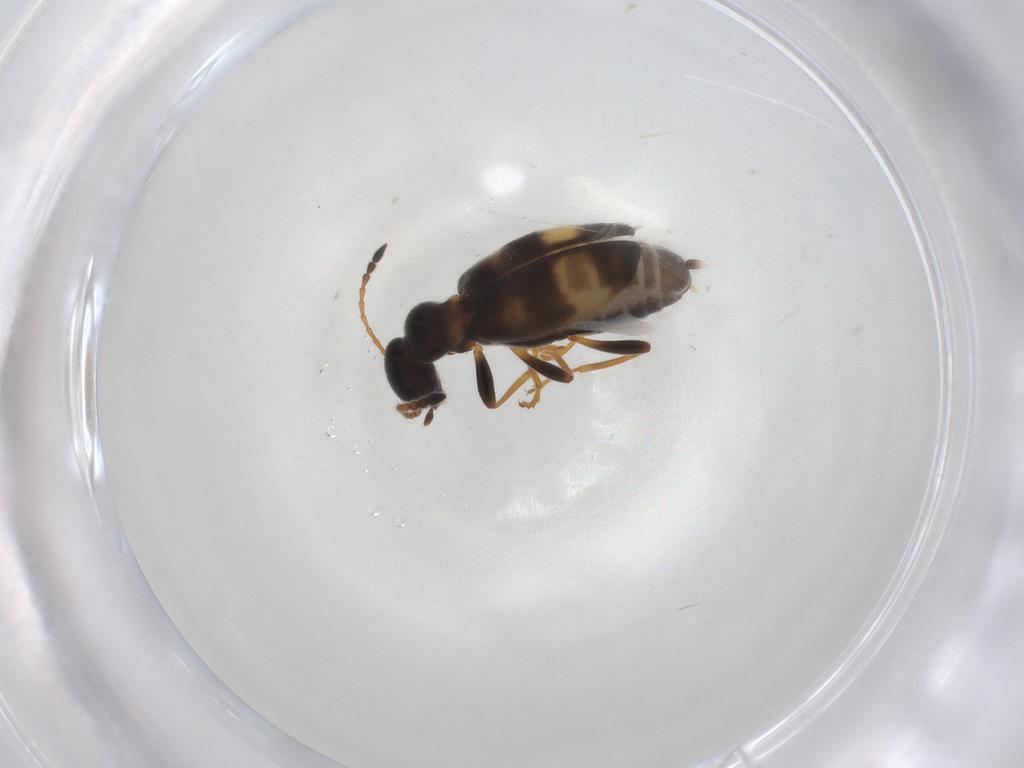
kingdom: Animalia
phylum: Arthropoda
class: Insecta
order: Coleoptera
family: Anthicidae
